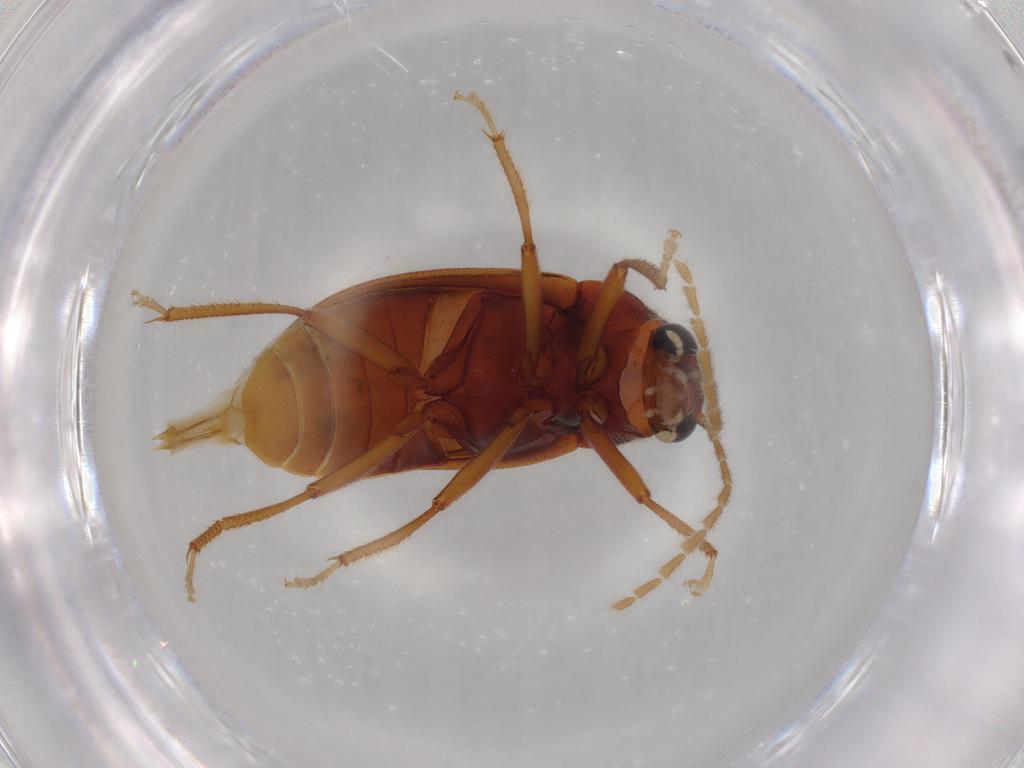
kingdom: Animalia
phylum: Arthropoda
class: Insecta
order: Coleoptera
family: Ptilodactylidae
